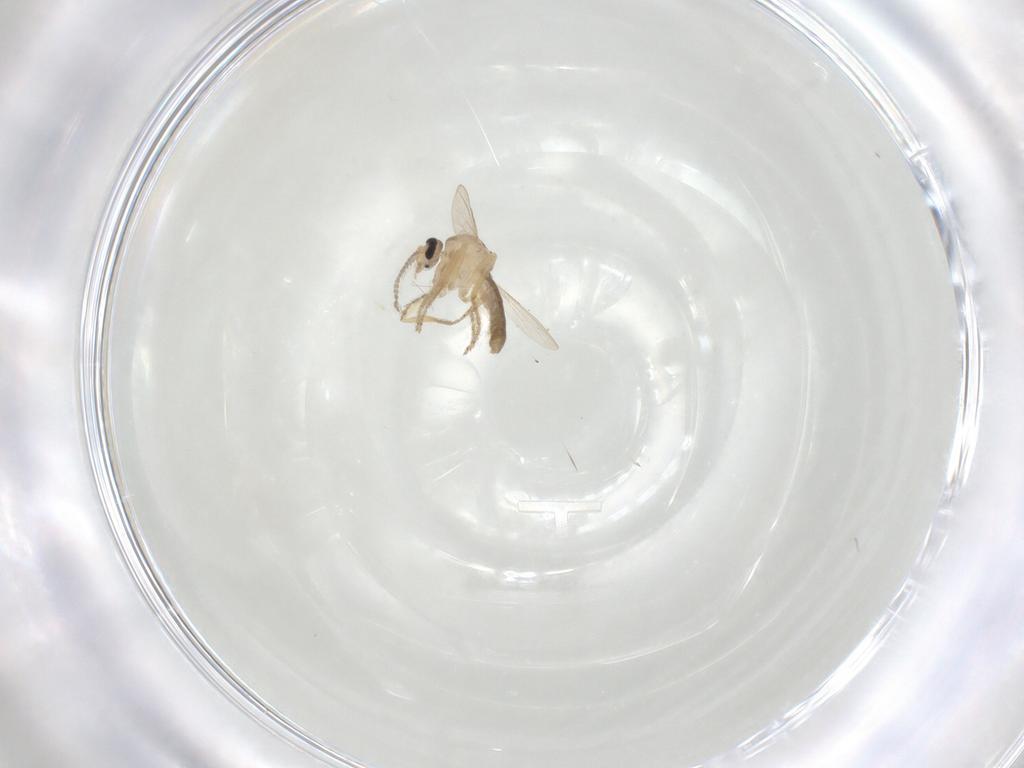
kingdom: Animalia
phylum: Arthropoda
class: Insecta
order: Diptera
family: Ceratopogonidae
